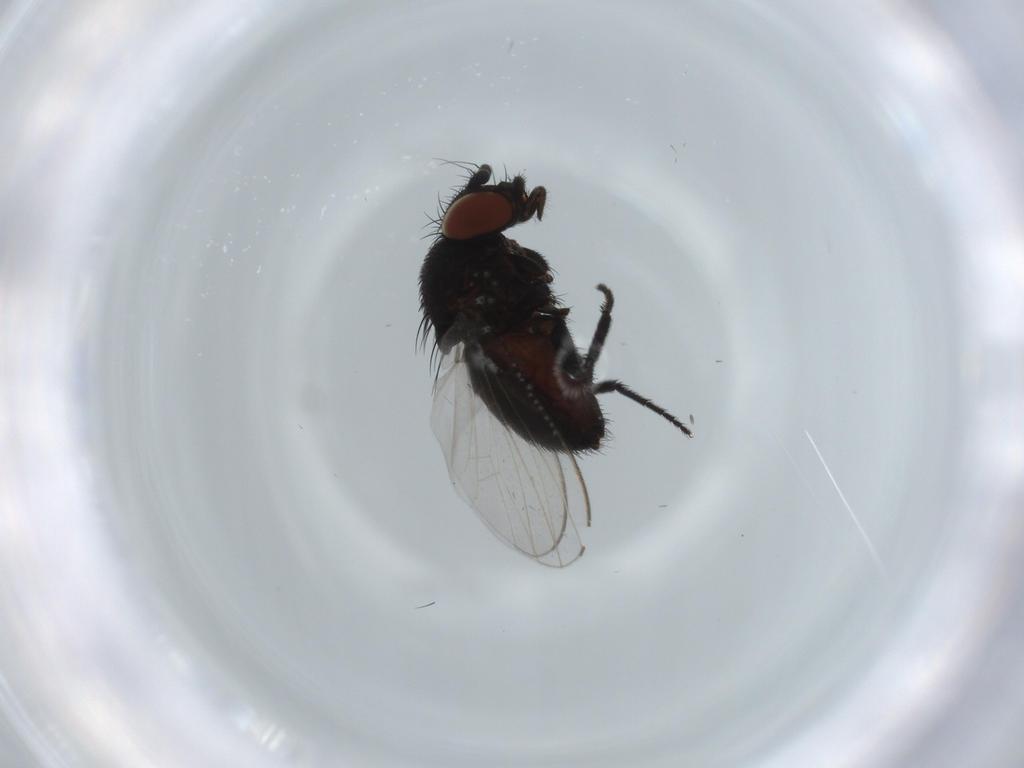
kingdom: Animalia
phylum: Arthropoda
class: Insecta
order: Diptera
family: Milichiidae
